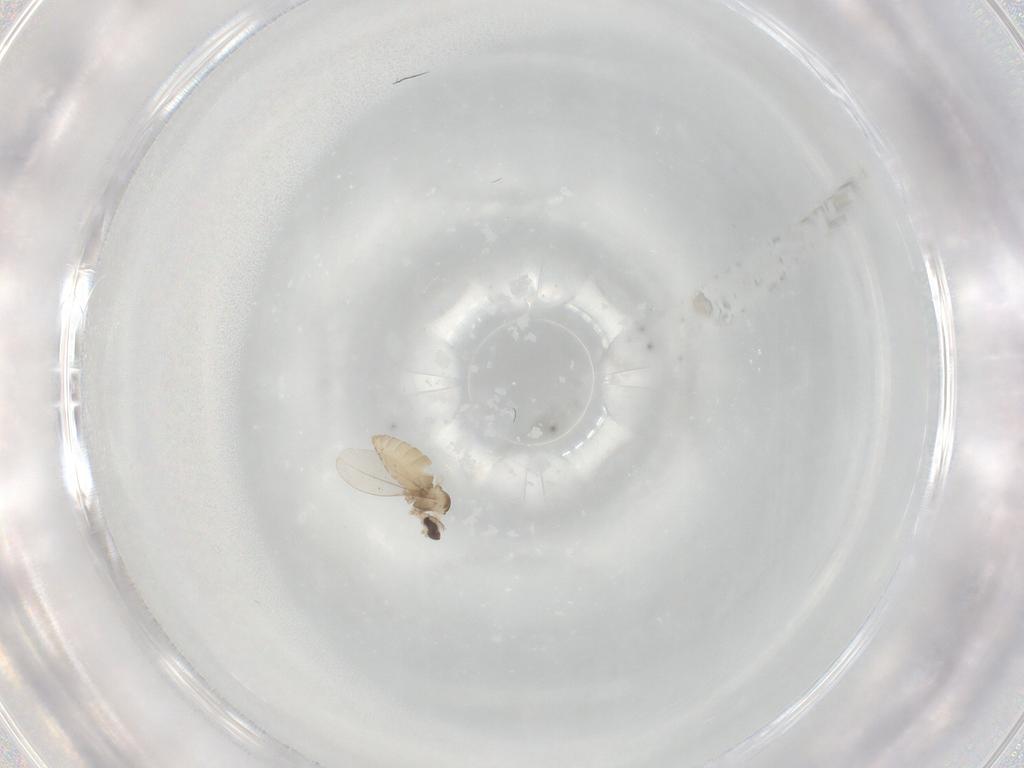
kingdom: Animalia
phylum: Arthropoda
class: Insecta
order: Diptera
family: Cecidomyiidae
